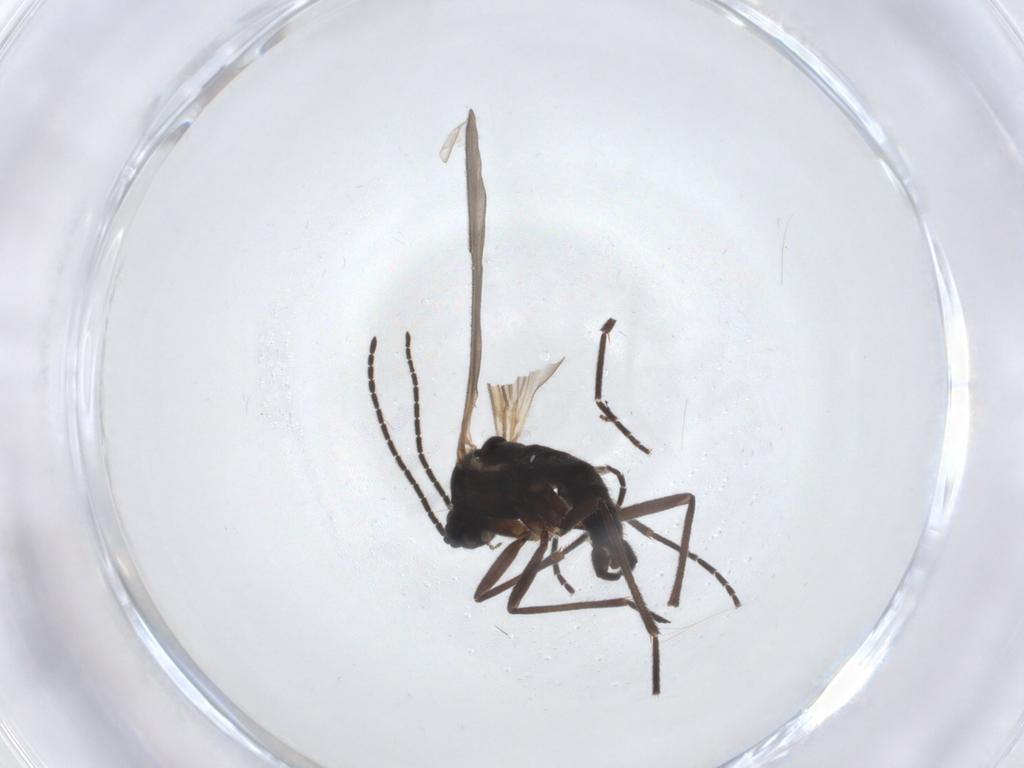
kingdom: Animalia
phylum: Arthropoda
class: Insecta
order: Diptera
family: Sciaridae
